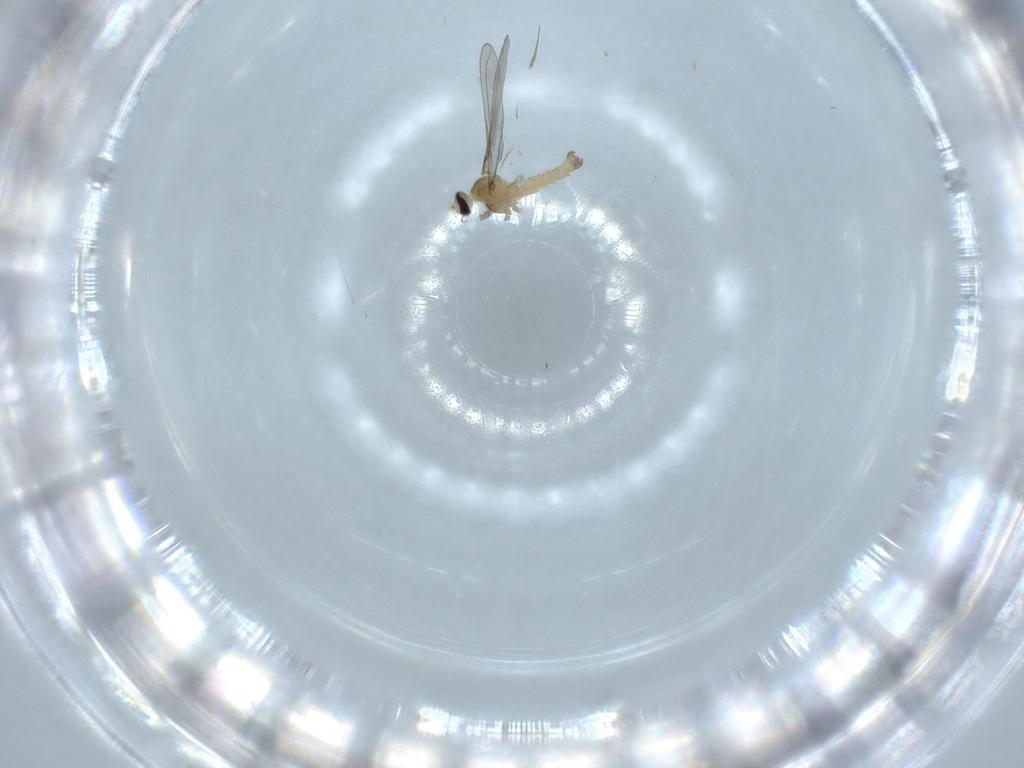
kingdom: Animalia
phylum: Arthropoda
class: Insecta
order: Diptera
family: Cecidomyiidae
